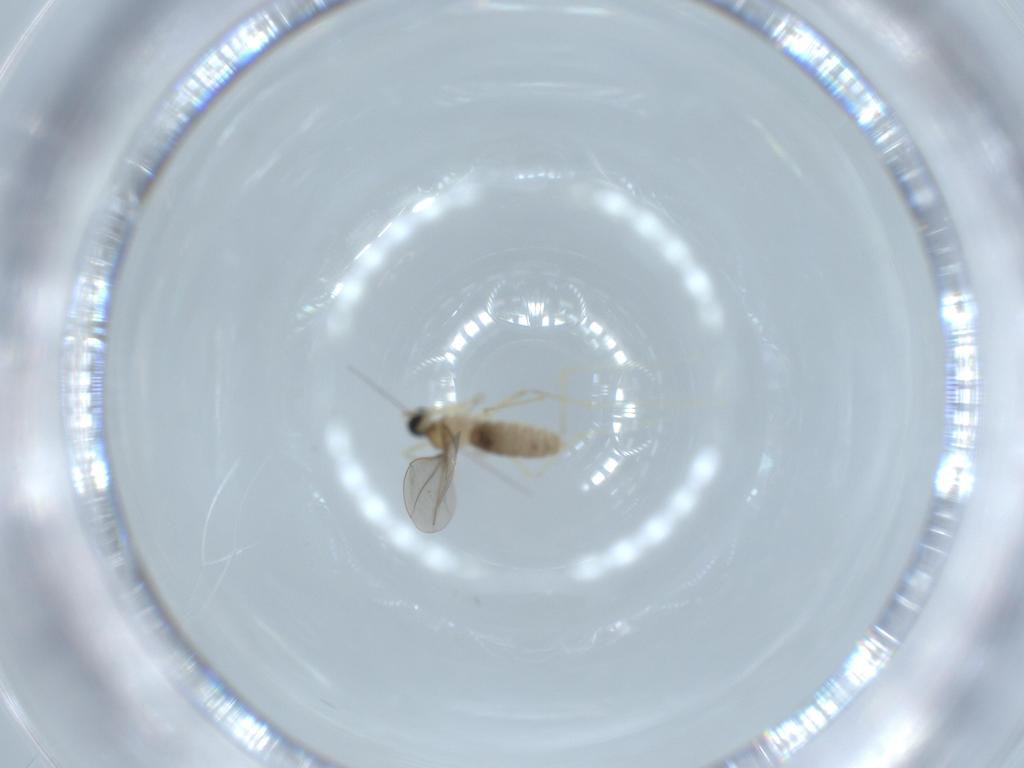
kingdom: Animalia
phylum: Arthropoda
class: Insecta
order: Diptera
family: Cecidomyiidae
